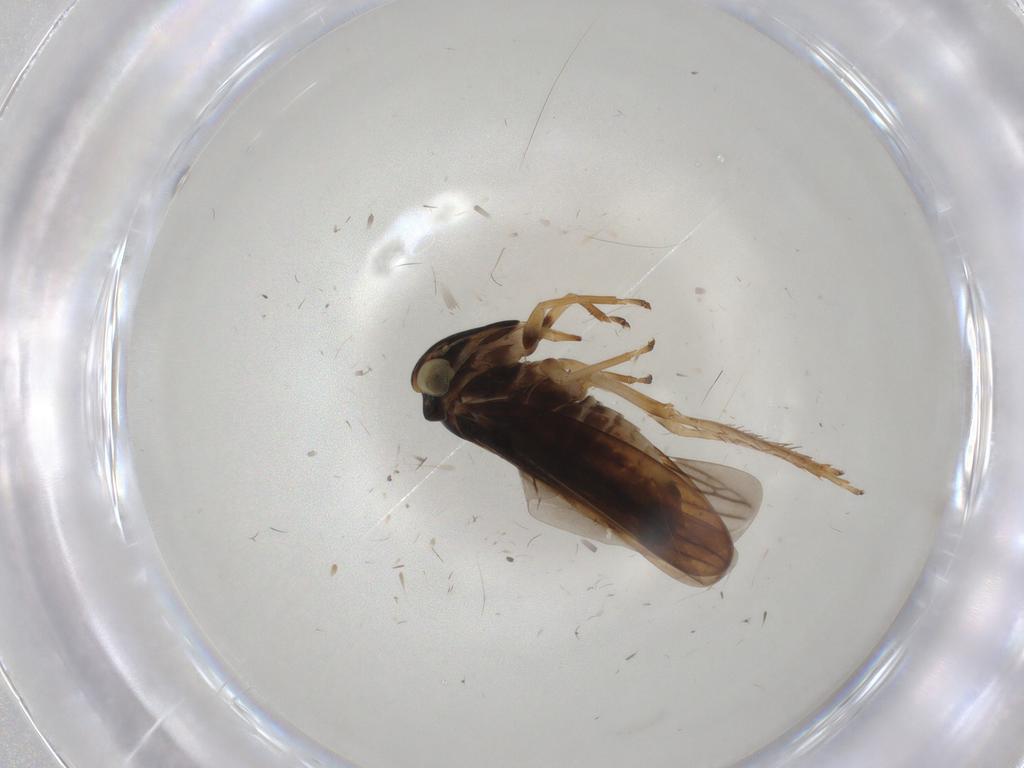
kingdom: Animalia
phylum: Arthropoda
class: Insecta
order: Hemiptera
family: Cicadellidae
